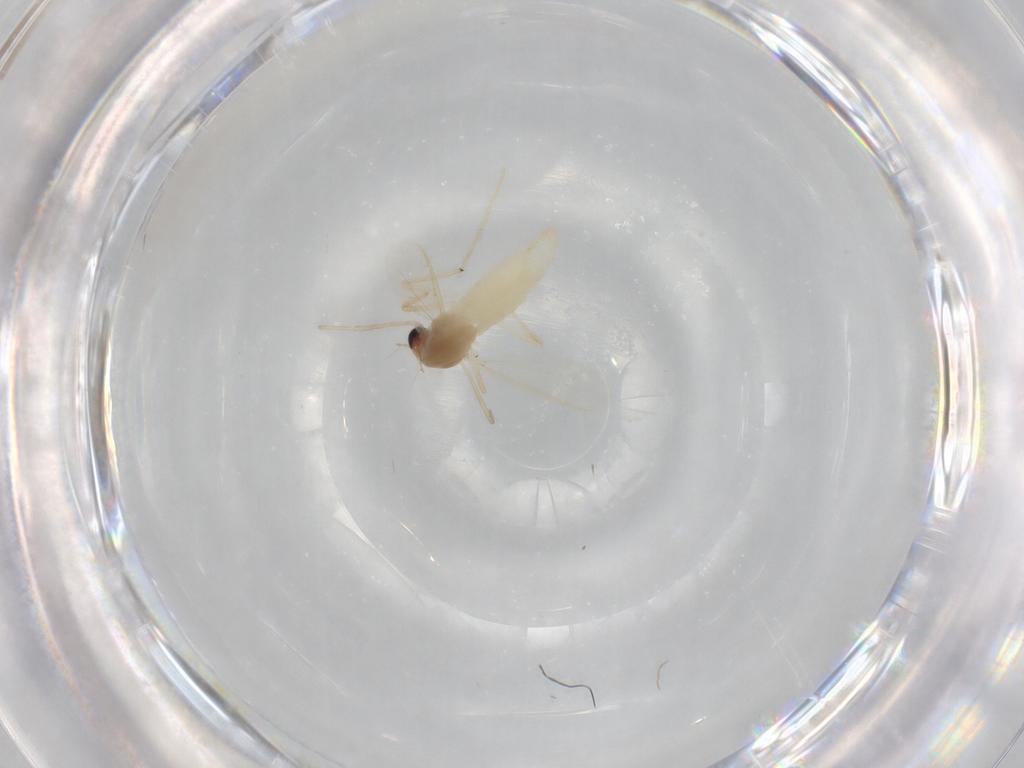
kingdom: Animalia
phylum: Arthropoda
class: Insecta
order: Diptera
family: Chironomidae
